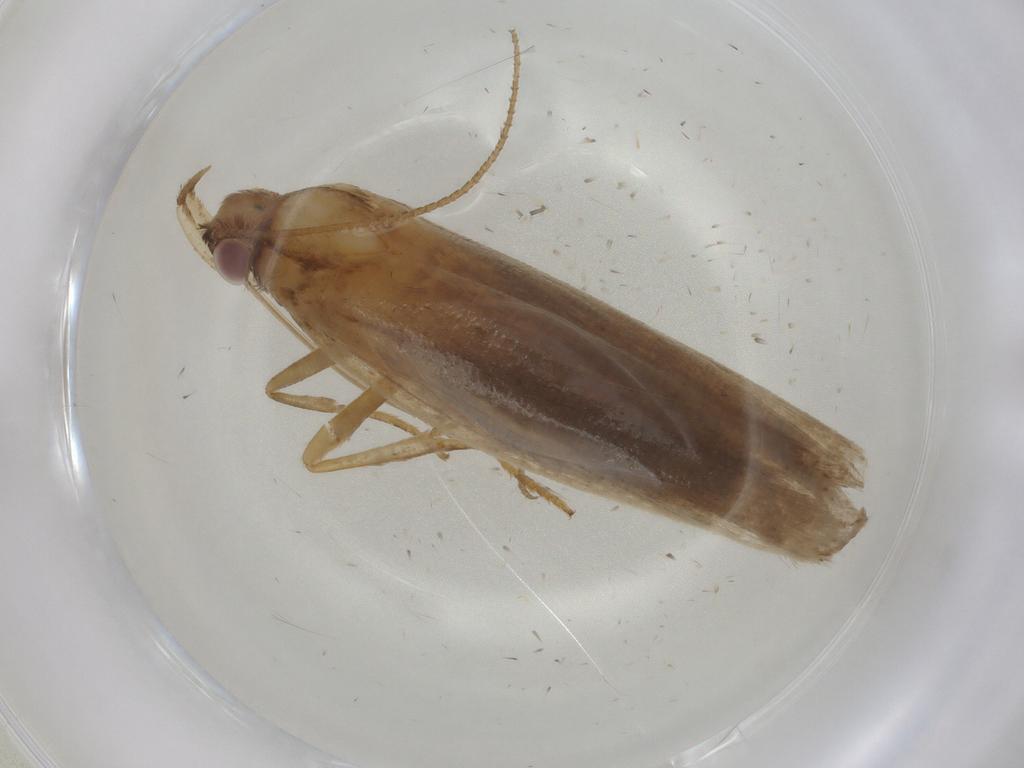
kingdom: Animalia
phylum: Arthropoda
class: Insecta
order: Lepidoptera
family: Gelechiidae
